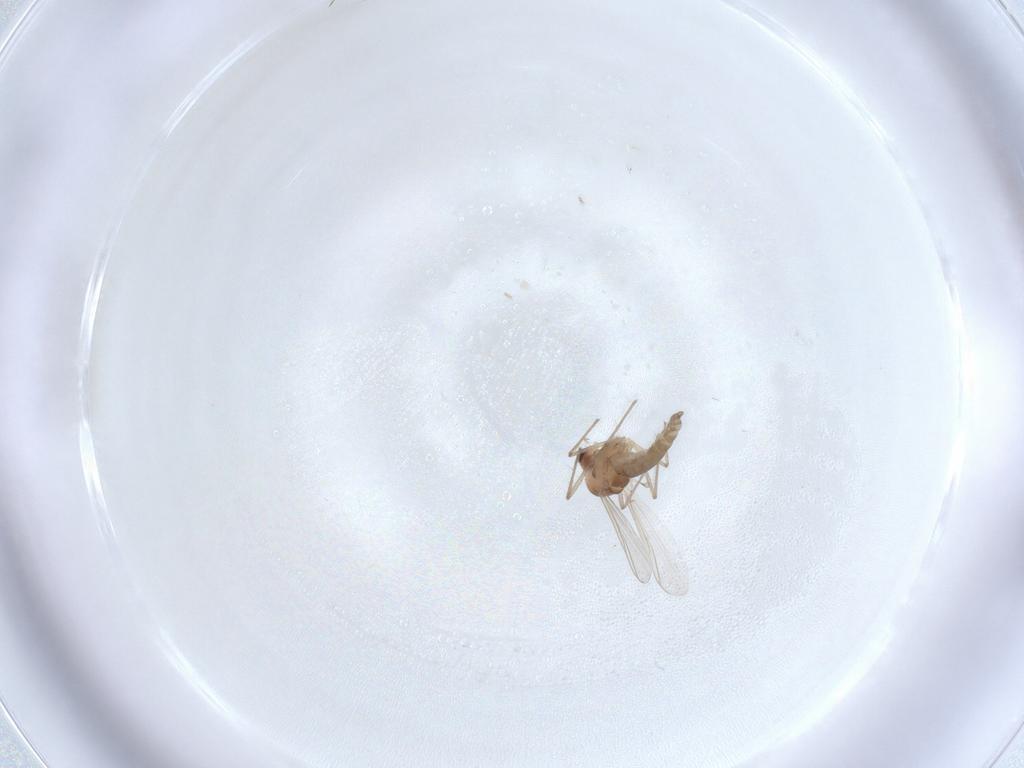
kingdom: Animalia
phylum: Arthropoda
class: Insecta
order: Diptera
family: Chironomidae
